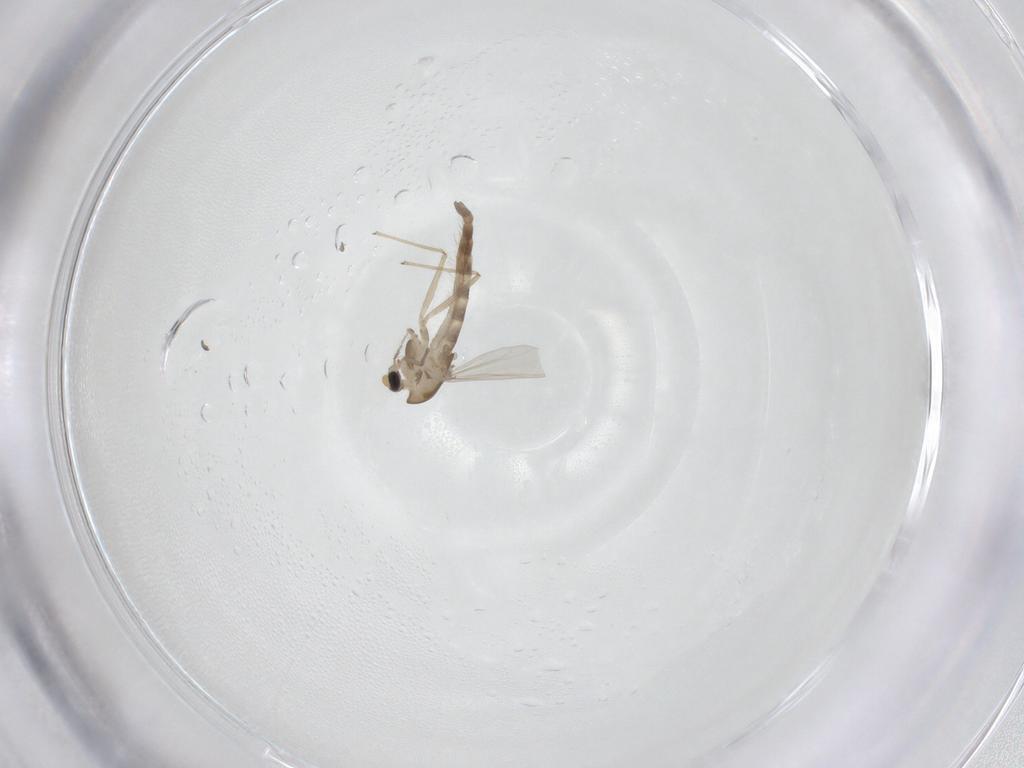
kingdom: Animalia
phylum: Arthropoda
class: Insecta
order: Diptera
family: Chironomidae
